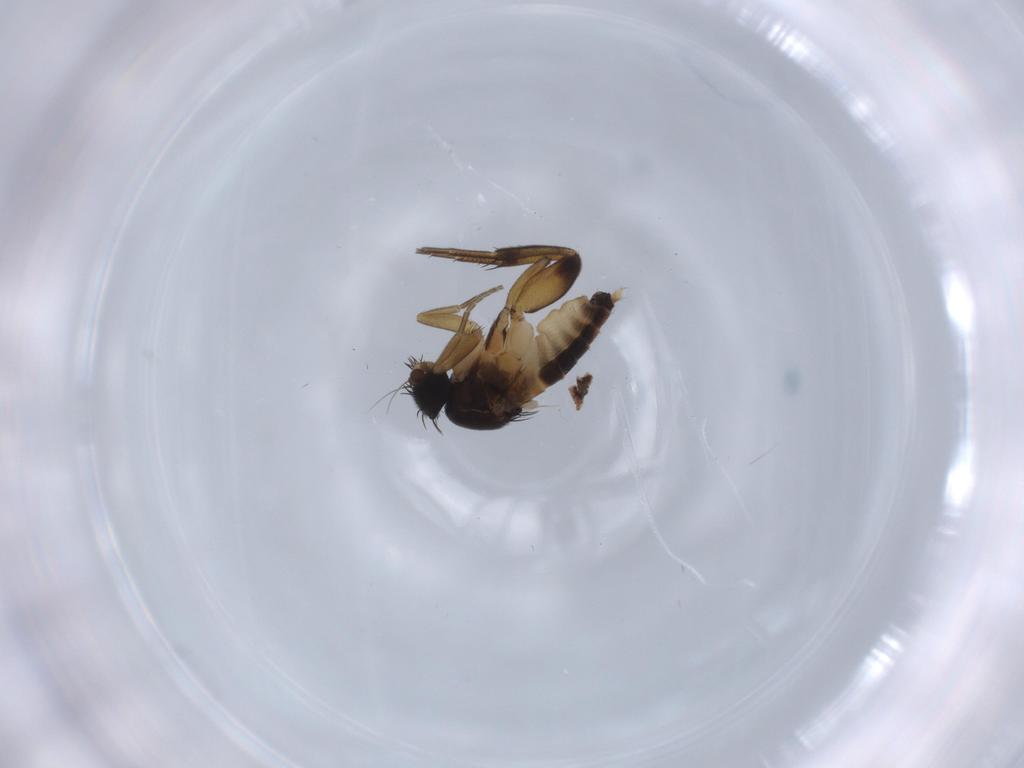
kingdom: Animalia
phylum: Arthropoda
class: Insecta
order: Diptera
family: Phoridae
